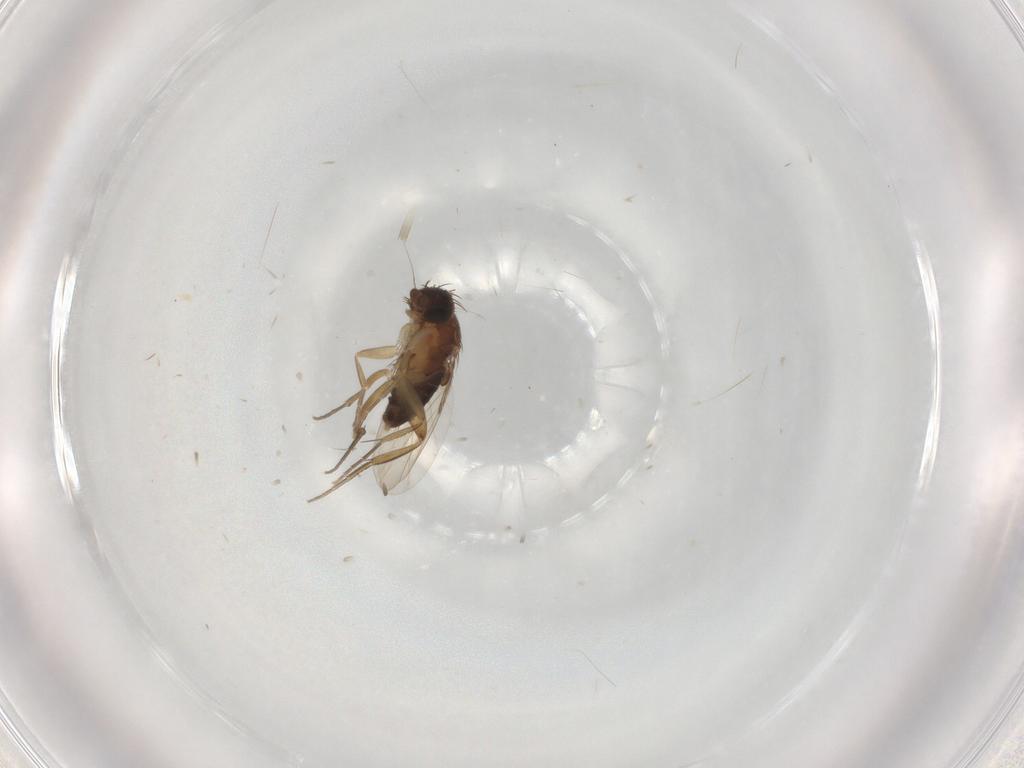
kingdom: Animalia
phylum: Arthropoda
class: Insecta
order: Diptera
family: Phoridae
